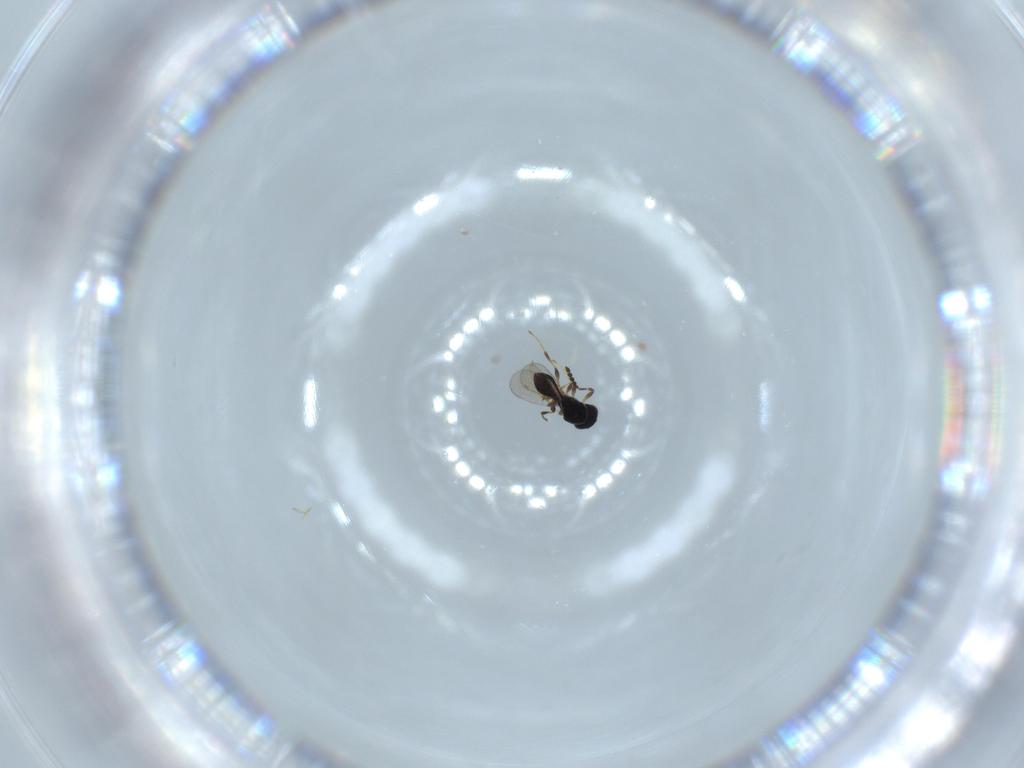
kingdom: Animalia
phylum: Arthropoda
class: Insecta
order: Hymenoptera
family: Platygastridae
